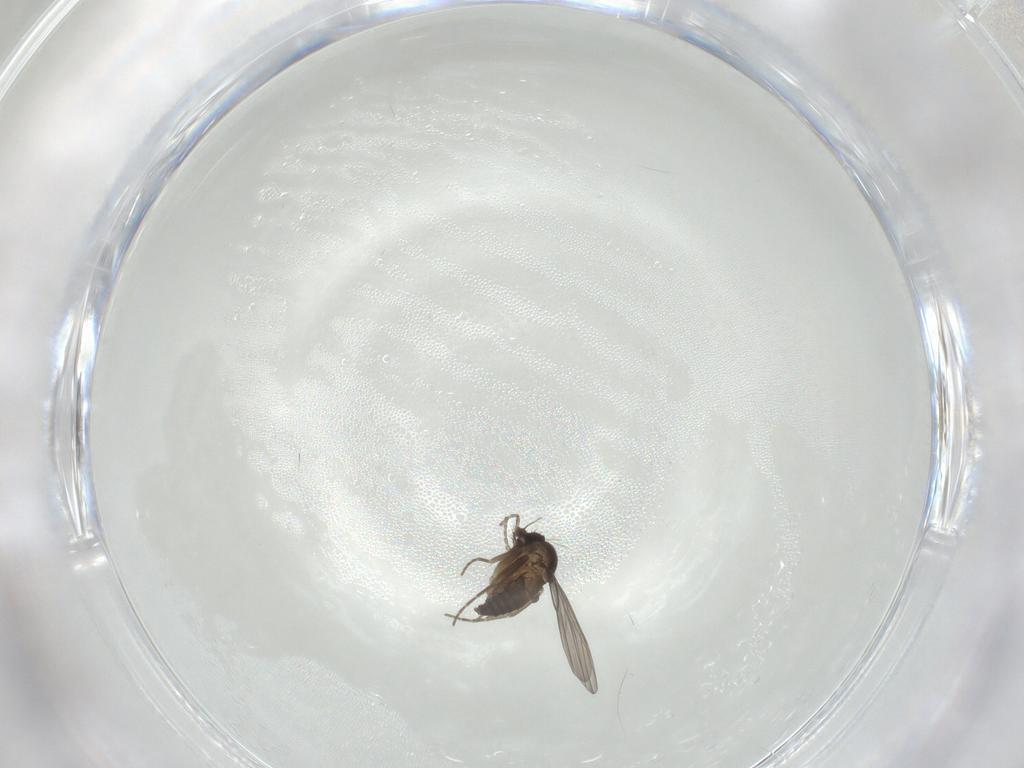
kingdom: Animalia
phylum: Arthropoda
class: Insecta
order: Diptera
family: Phoridae
